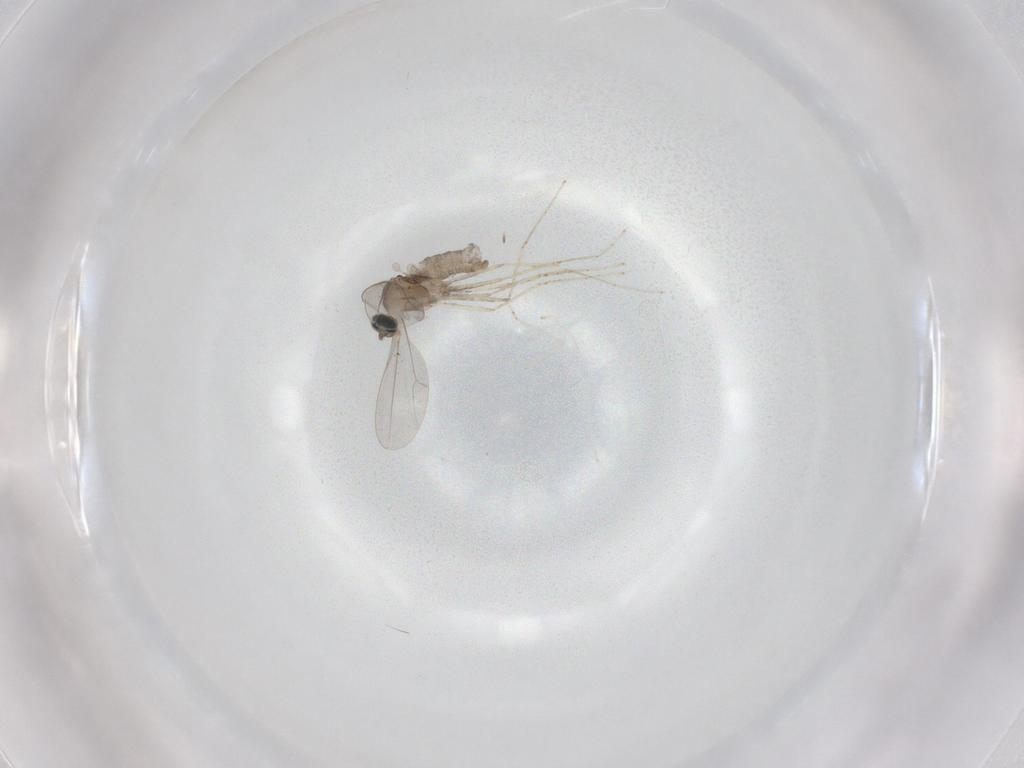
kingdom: Animalia
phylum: Arthropoda
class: Insecta
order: Diptera
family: Cecidomyiidae
